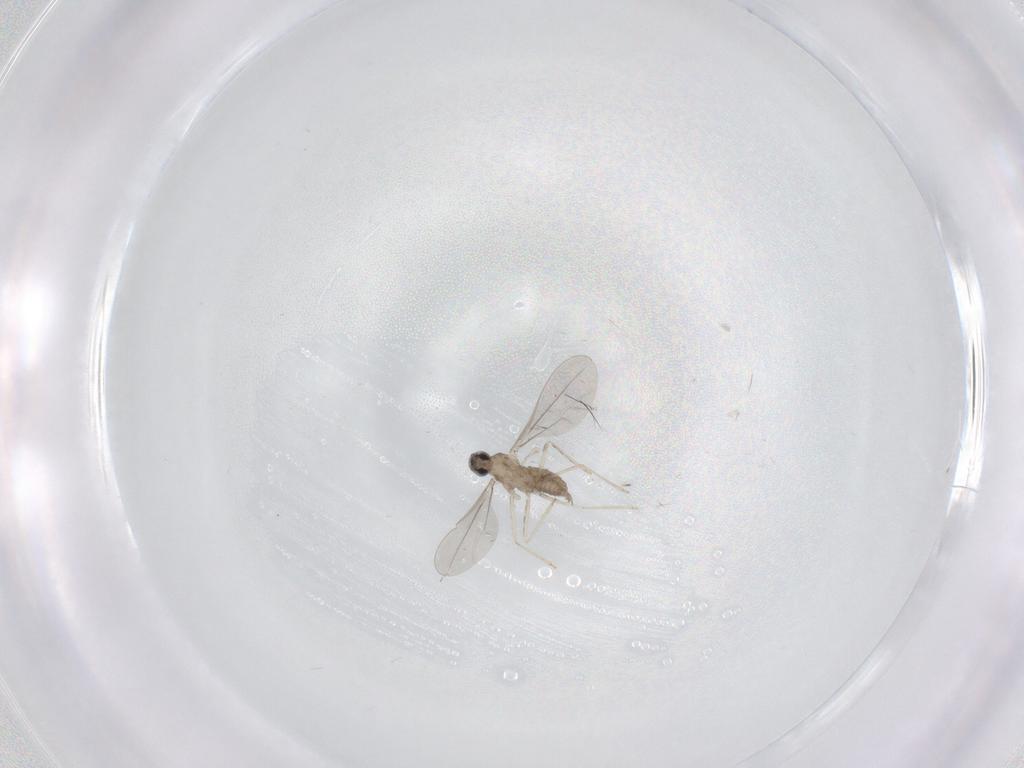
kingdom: Animalia
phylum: Arthropoda
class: Insecta
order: Diptera
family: Cecidomyiidae
